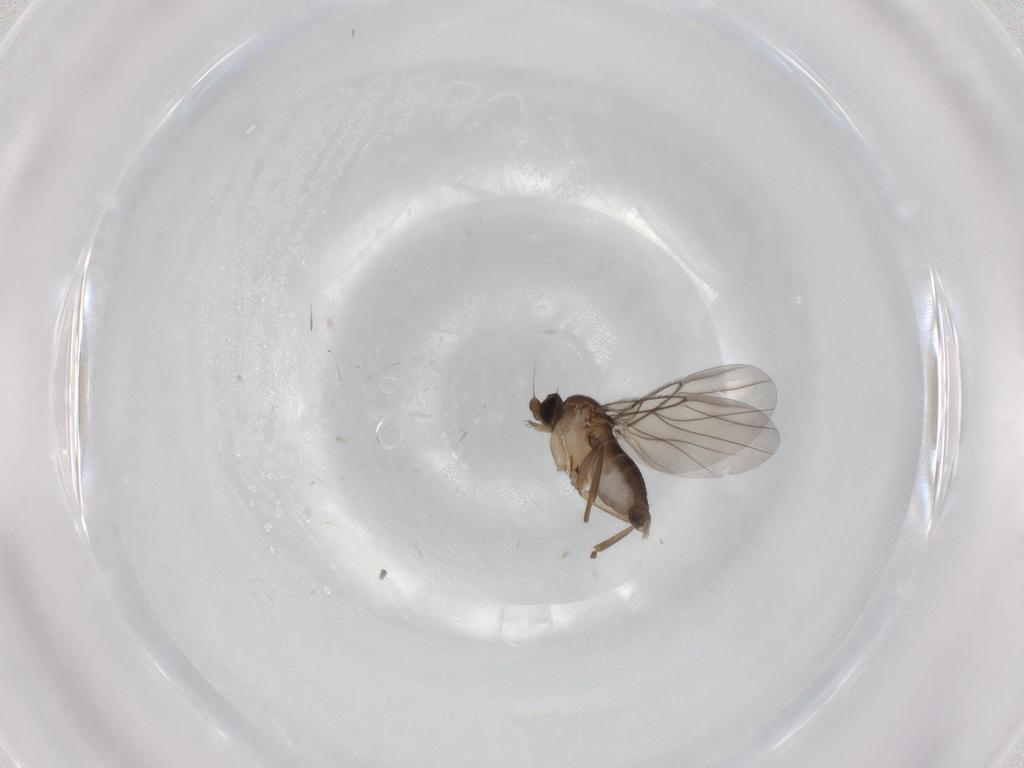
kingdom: Animalia
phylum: Arthropoda
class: Insecta
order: Diptera
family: Phoridae
